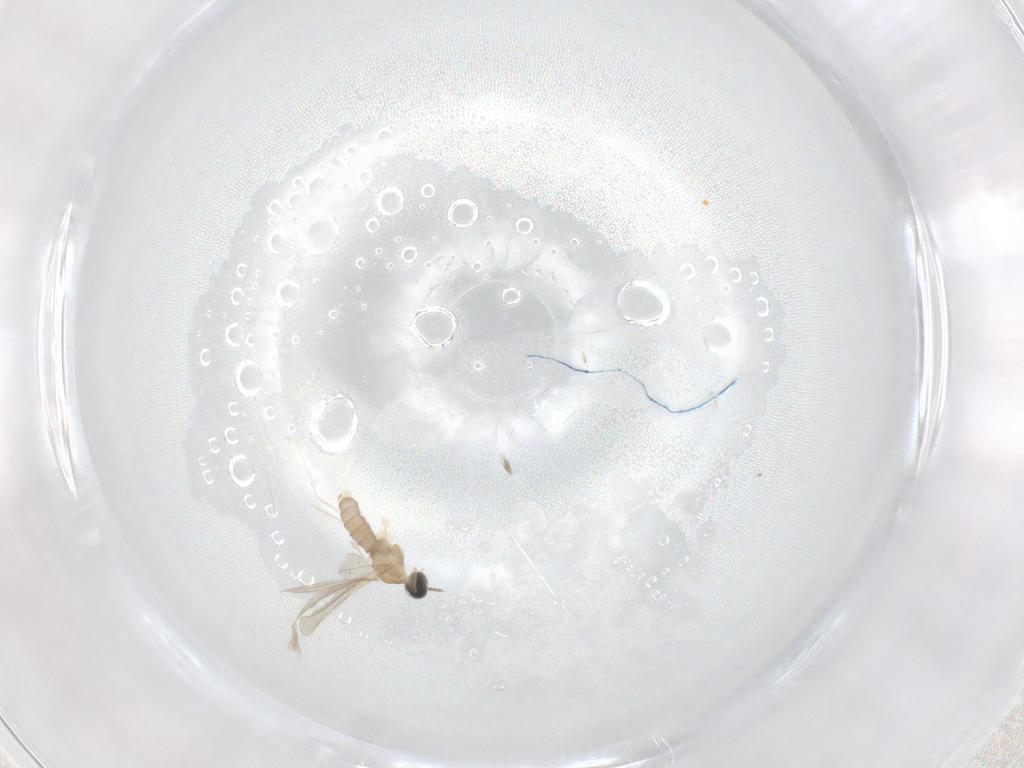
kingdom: Animalia
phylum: Arthropoda
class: Insecta
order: Diptera
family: Cecidomyiidae
